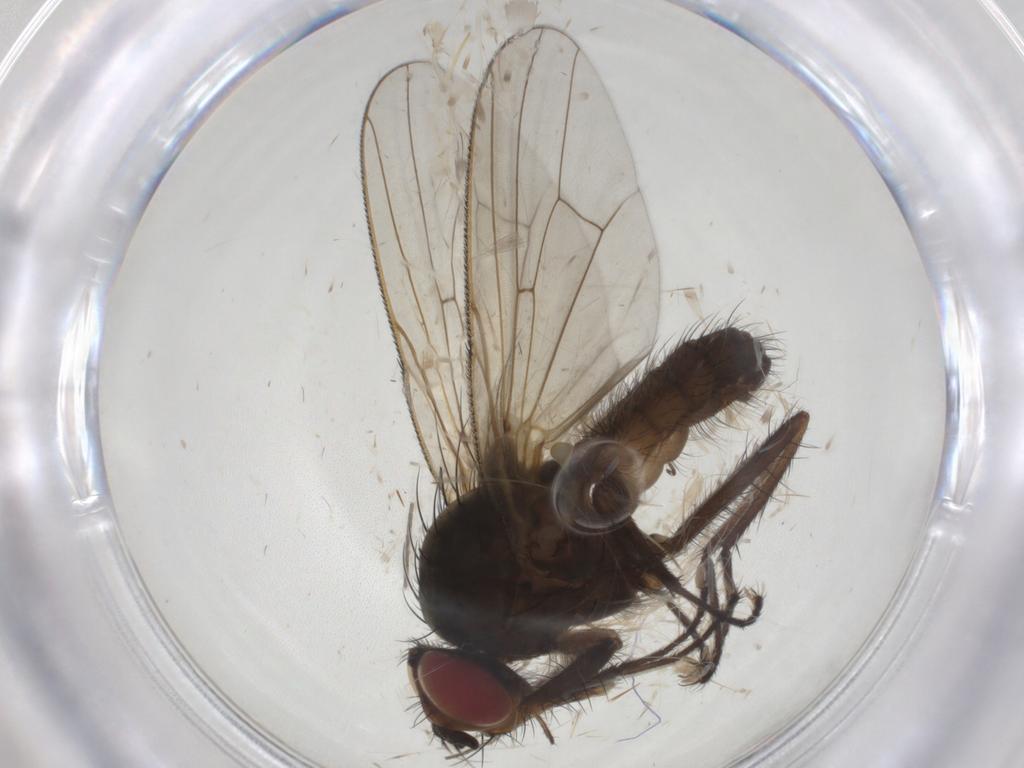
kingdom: Animalia
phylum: Arthropoda
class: Insecta
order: Diptera
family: Anthomyiidae
